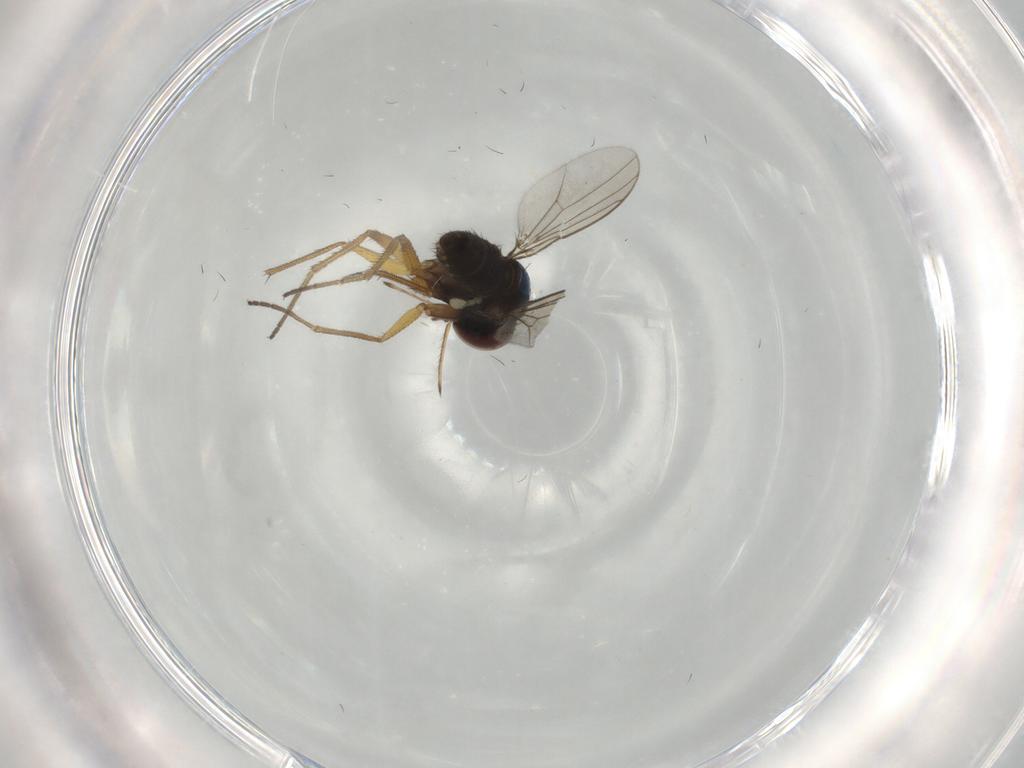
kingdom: Animalia
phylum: Arthropoda
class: Insecta
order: Diptera
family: Dolichopodidae
